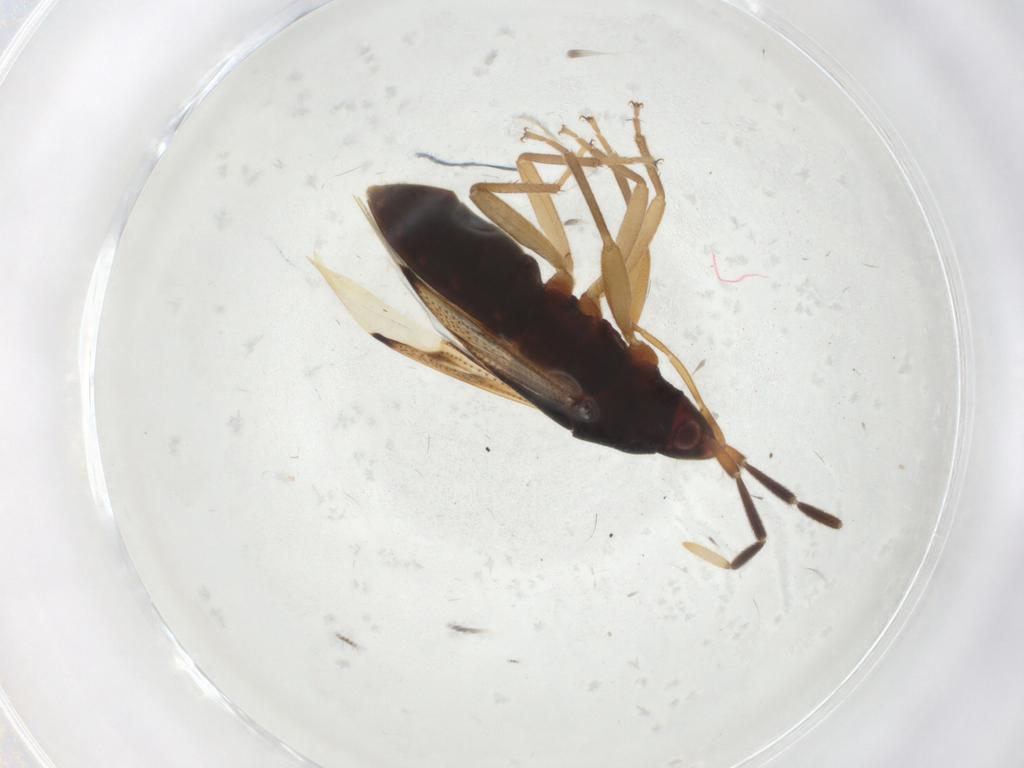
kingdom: Animalia
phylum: Arthropoda
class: Insecta
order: Hemiptera
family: Rhyparochromidae
